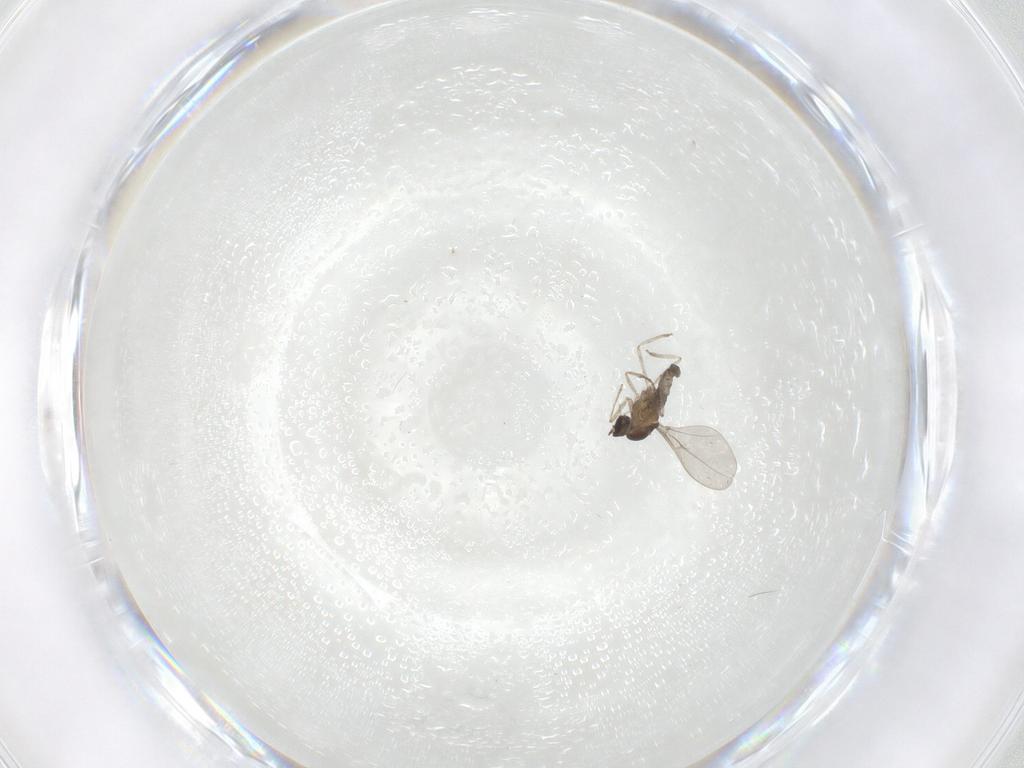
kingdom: Animalia
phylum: Arthropoda
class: Insecta
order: Diptera
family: Cecidomyiidae
